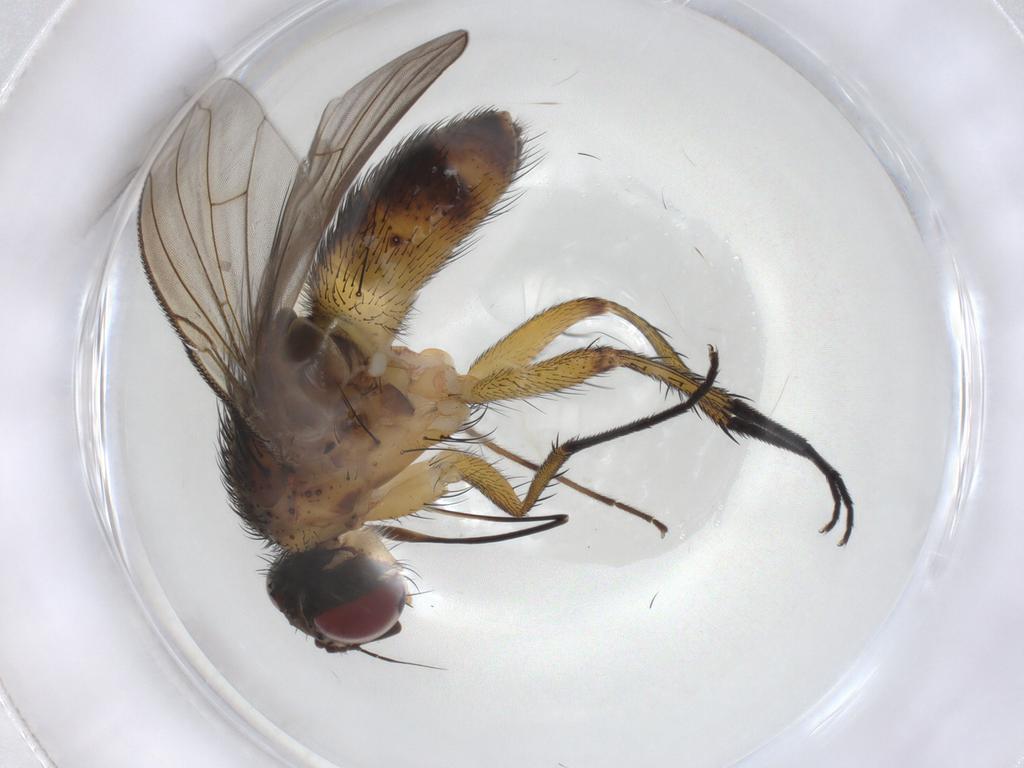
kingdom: Animalia
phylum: Arthropoda
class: Insecta
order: Diptera
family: Tachinidae
